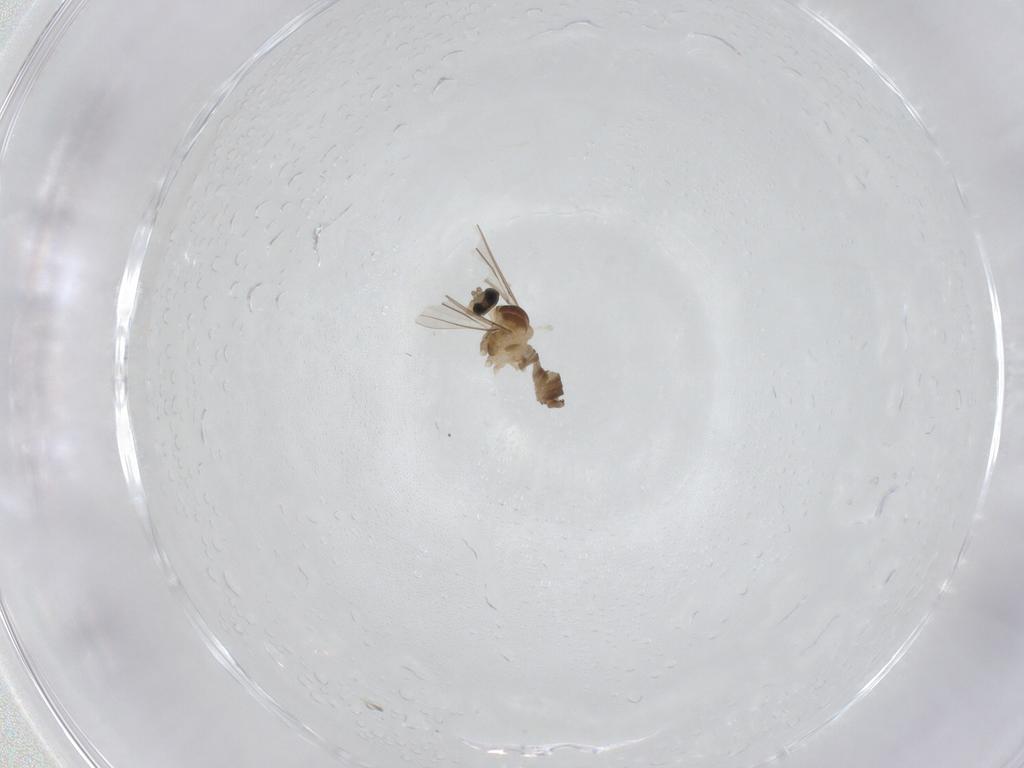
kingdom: Animalia
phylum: Arthropoda
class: Insecta
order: Diptera
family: Cecidomyiidae
